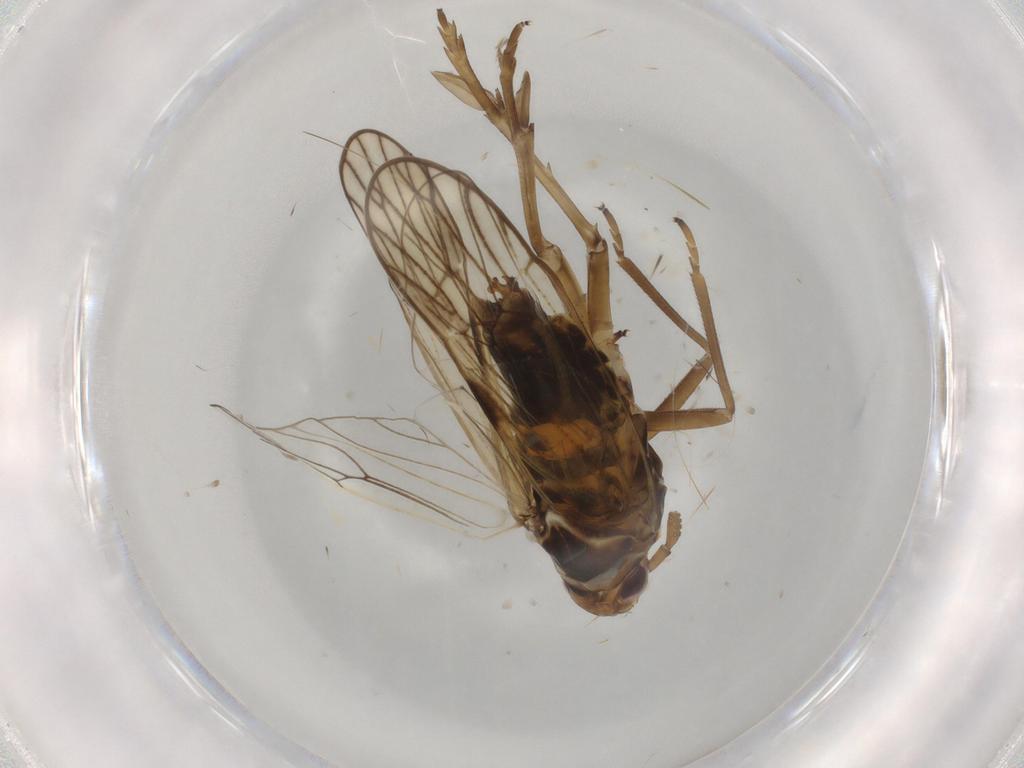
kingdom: Animalia
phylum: Arthropoda
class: Insecta
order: Hemiptera
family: Delphacidae
